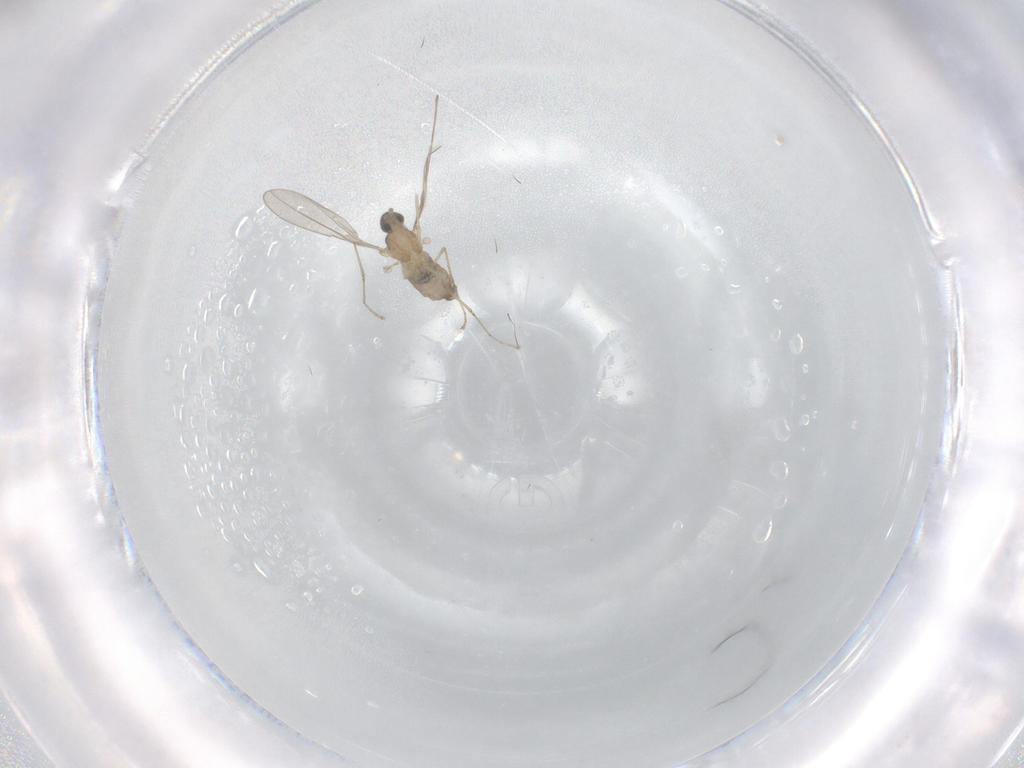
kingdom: Animalia
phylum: Arthropoda
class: Insecta
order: Diptera
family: Cecidomyiidae
